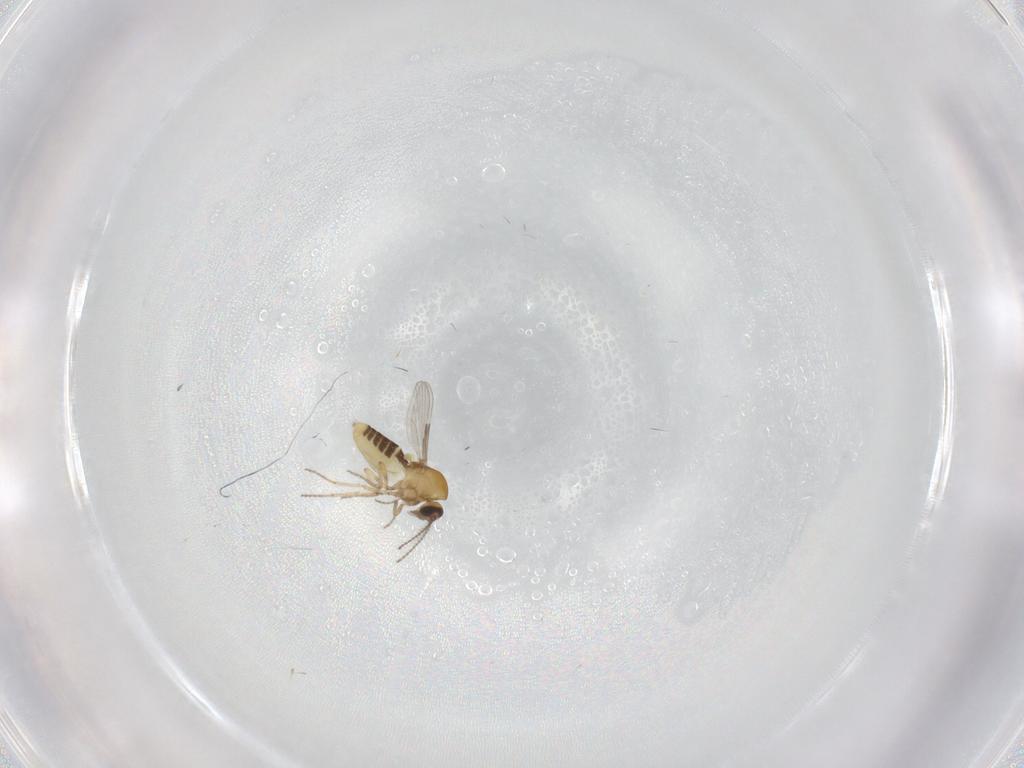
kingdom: Animalia
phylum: Arthropoda
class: Insecta
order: Diptera
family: Ceratopogonidae
